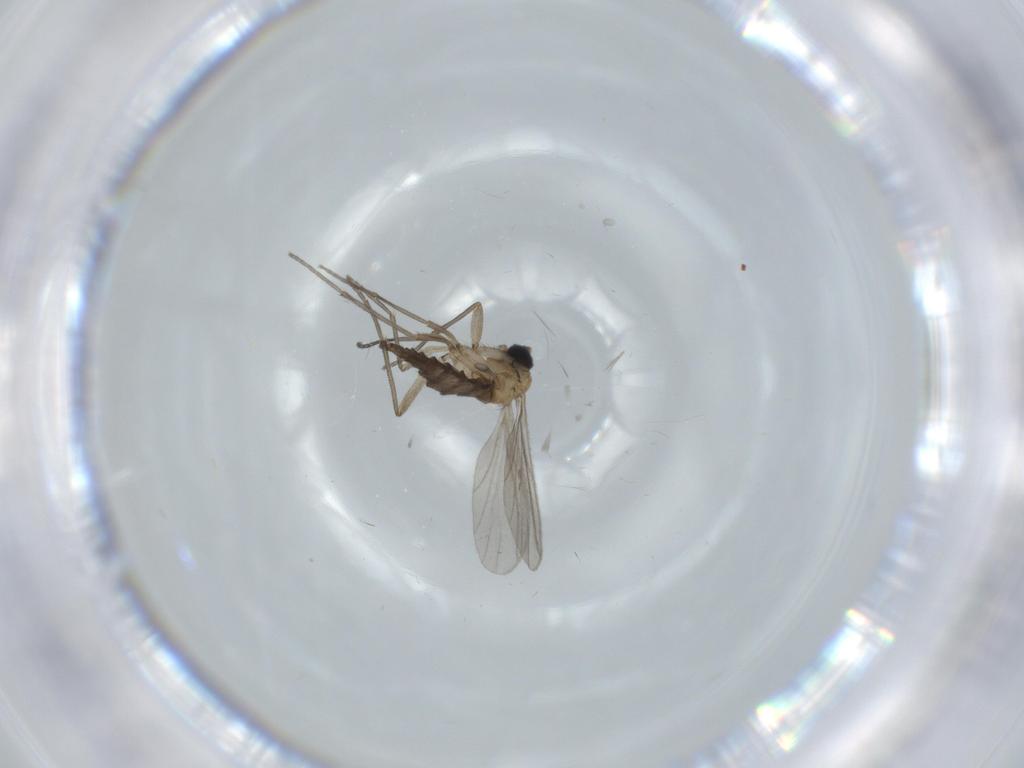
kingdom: Animalia
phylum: Arthropoda
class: Insecta
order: Diptera
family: Sciaridae
